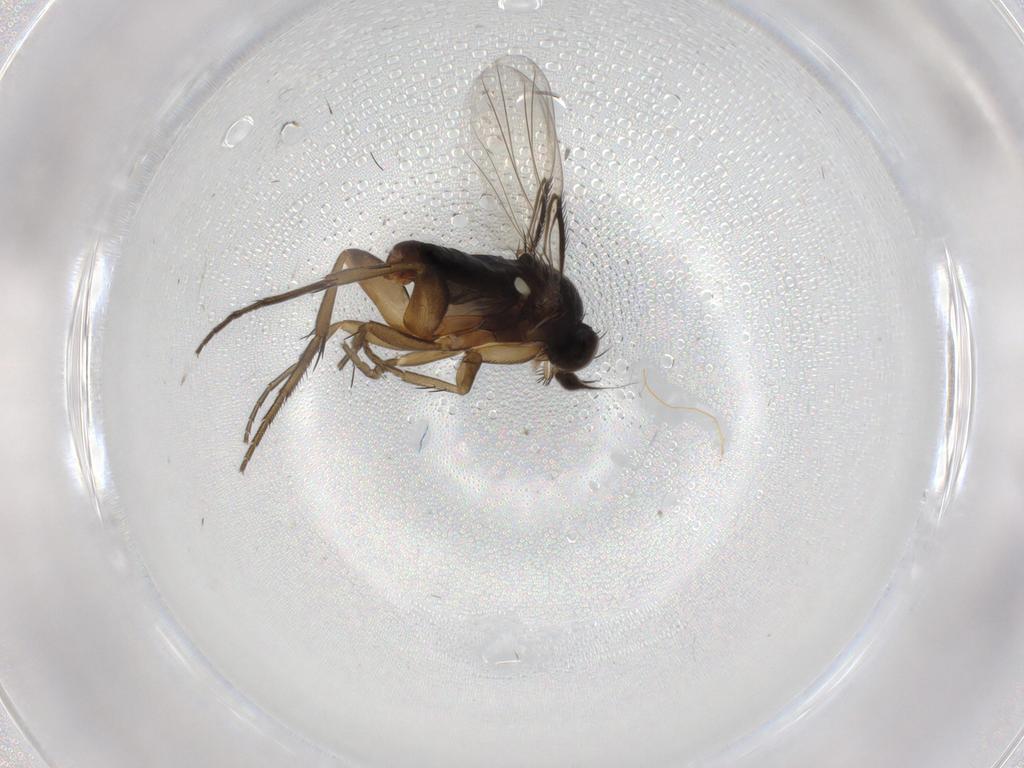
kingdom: Animalia
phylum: Arthropoda
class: Insecta
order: Diptera
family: Phoridae
